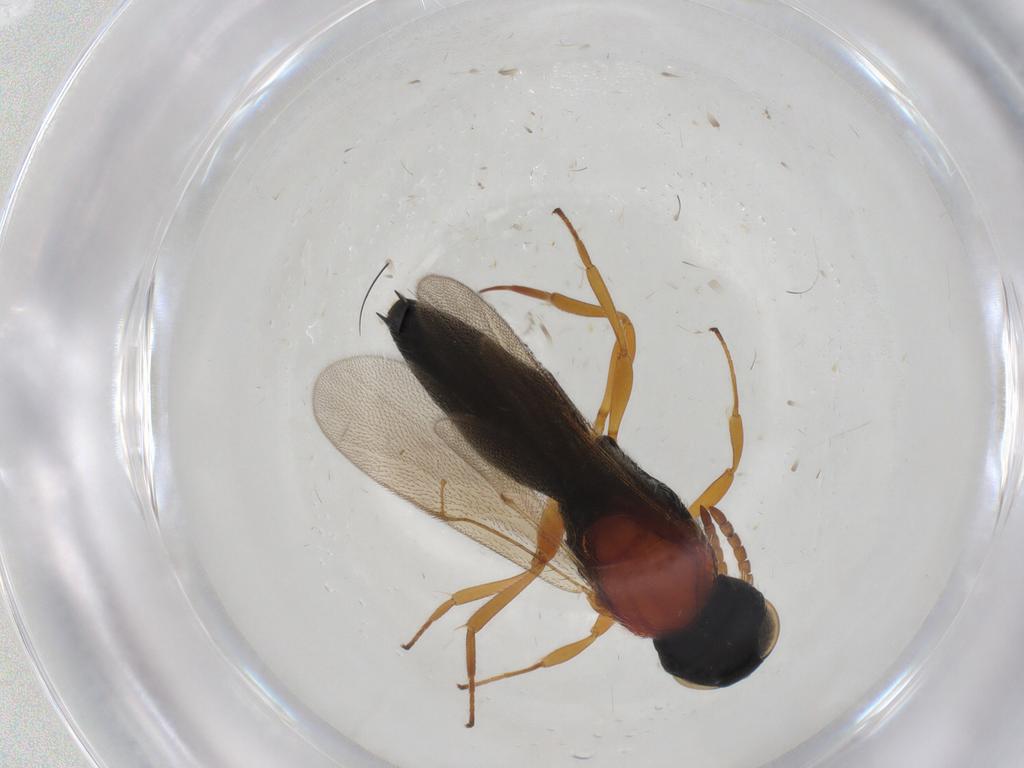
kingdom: Animalia
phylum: Arthropoda
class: Insecta
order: Hymenoptera
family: Scelionidae
